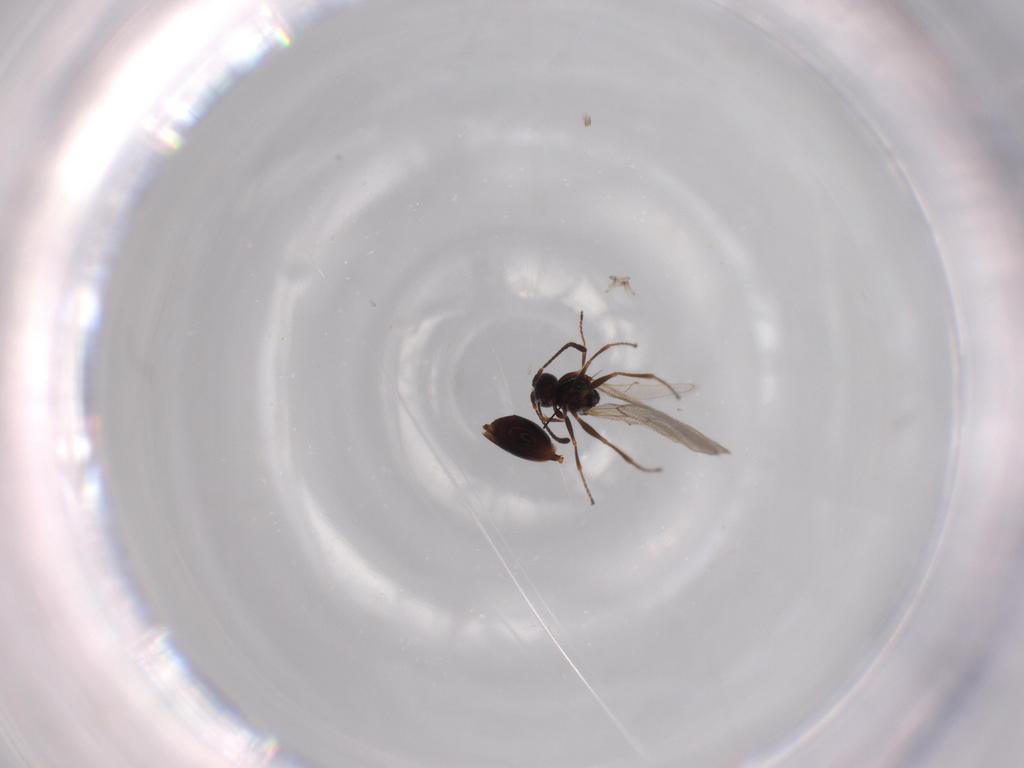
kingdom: Animalia
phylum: Arthropoda
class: Insecta
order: Hymenoptera
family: Figitidae
